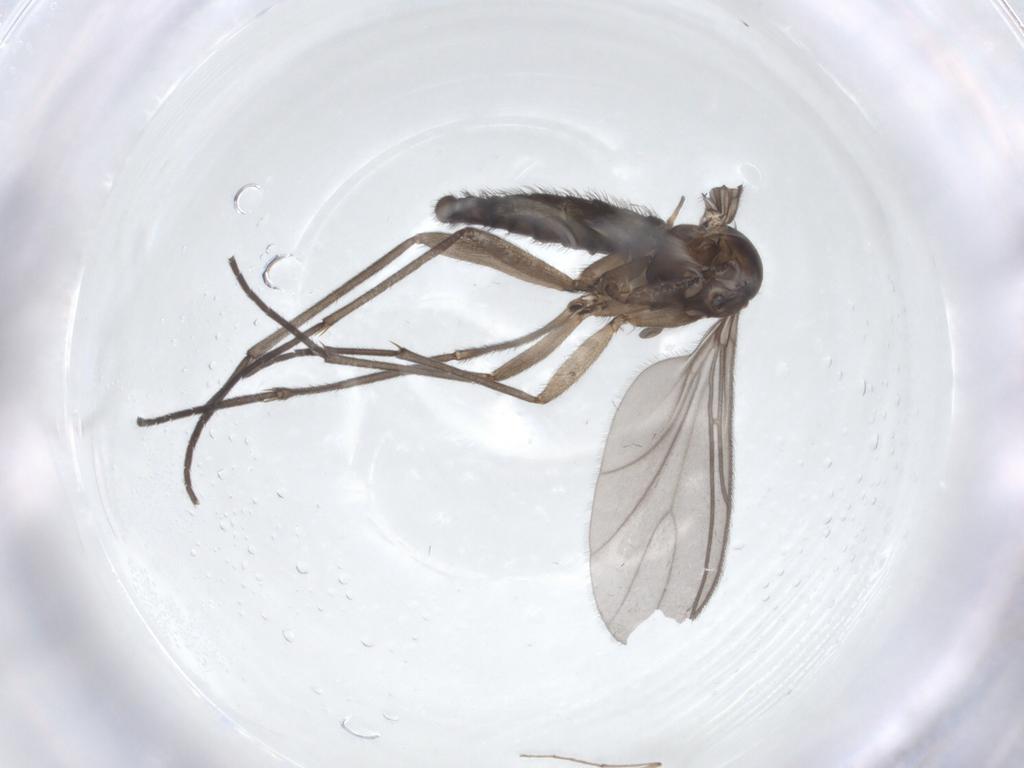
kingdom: Animalia
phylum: Arthropoda
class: Insecta
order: Diptera
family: Sciaridae
